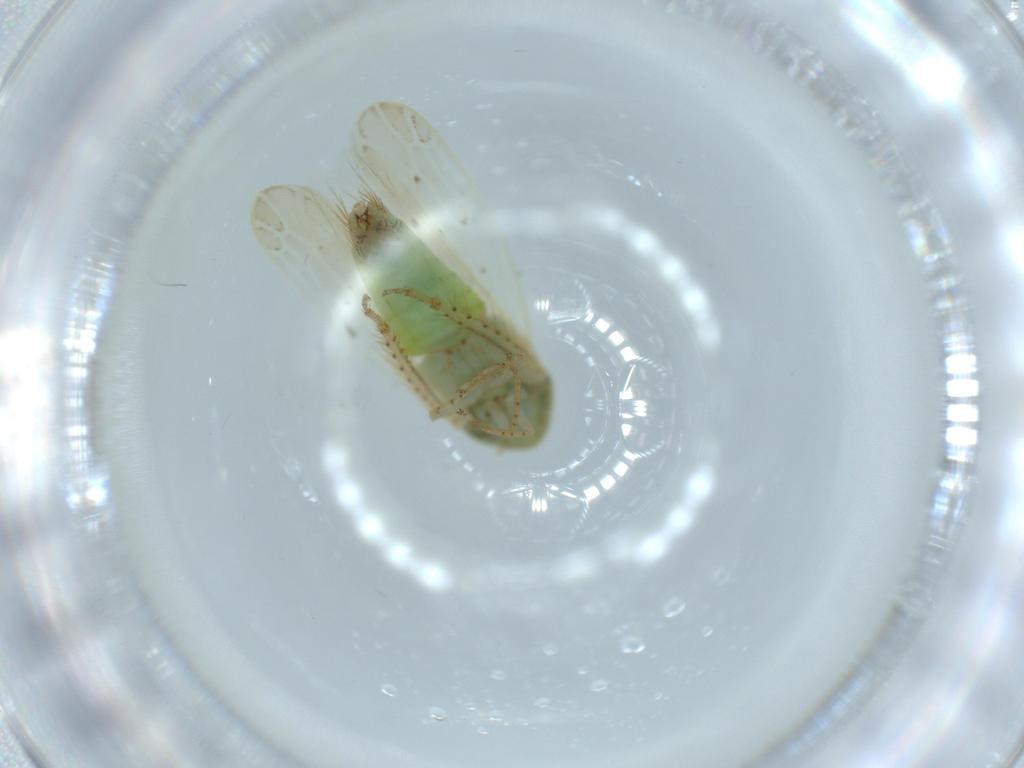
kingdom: Animalia
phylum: Arthropoda
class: Insecta
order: Hemiptera
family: Cicadellidae
